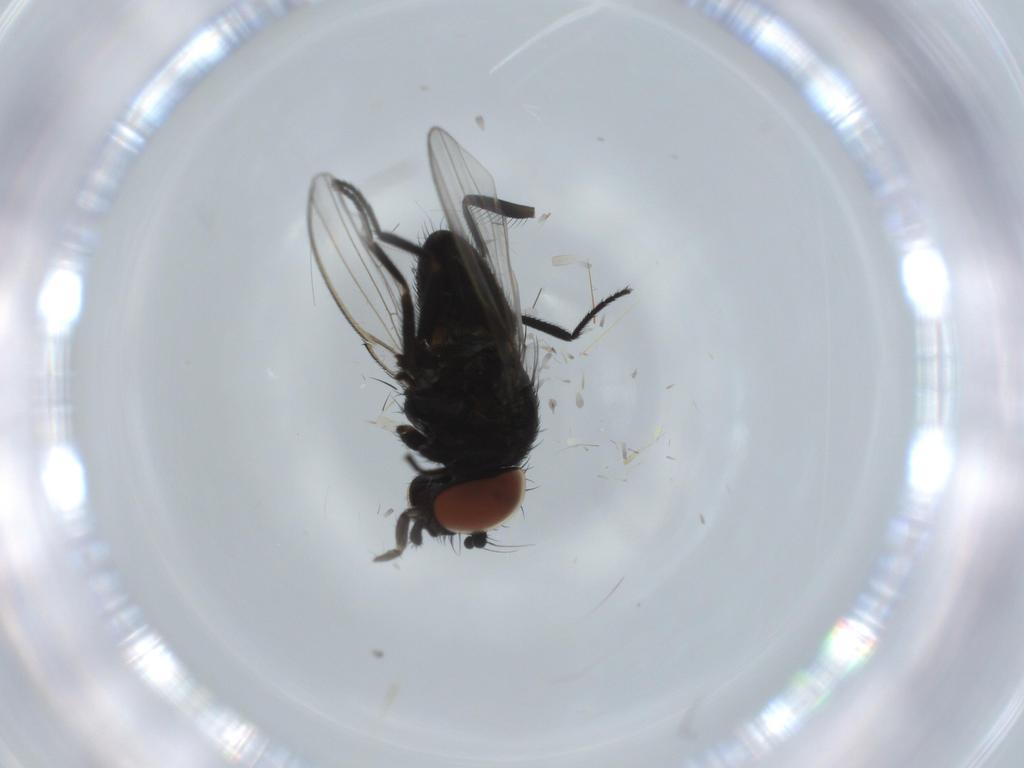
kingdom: Animalia
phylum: Arthropoda
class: Insecta
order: Diptera
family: Milichiidae
